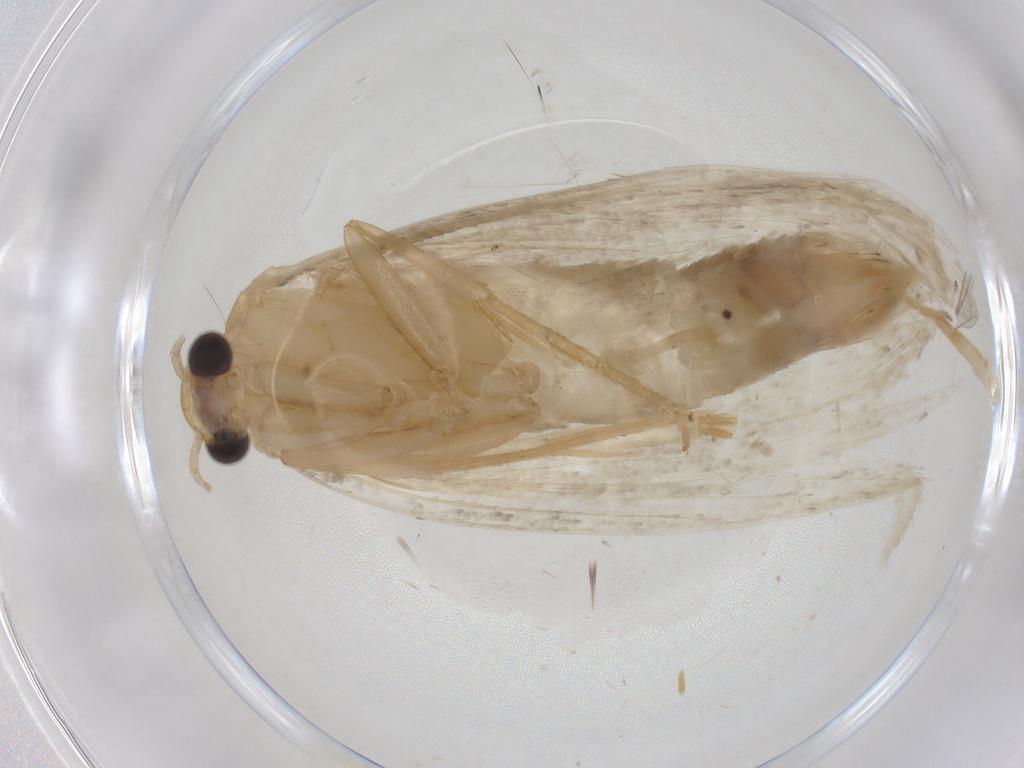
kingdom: Animalia
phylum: Arthropoda
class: Insecta
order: Lepidoptera
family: Tineidae
